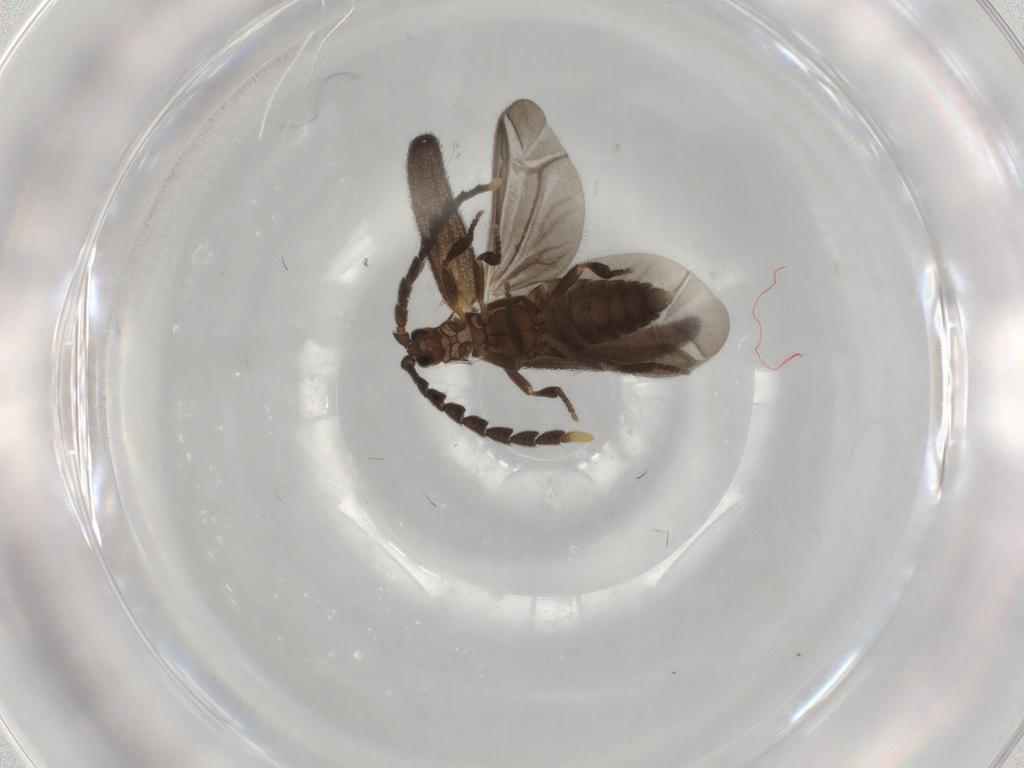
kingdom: Animalia
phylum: Arthropoda
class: Insecta
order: Coleoptera
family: Lycidae
